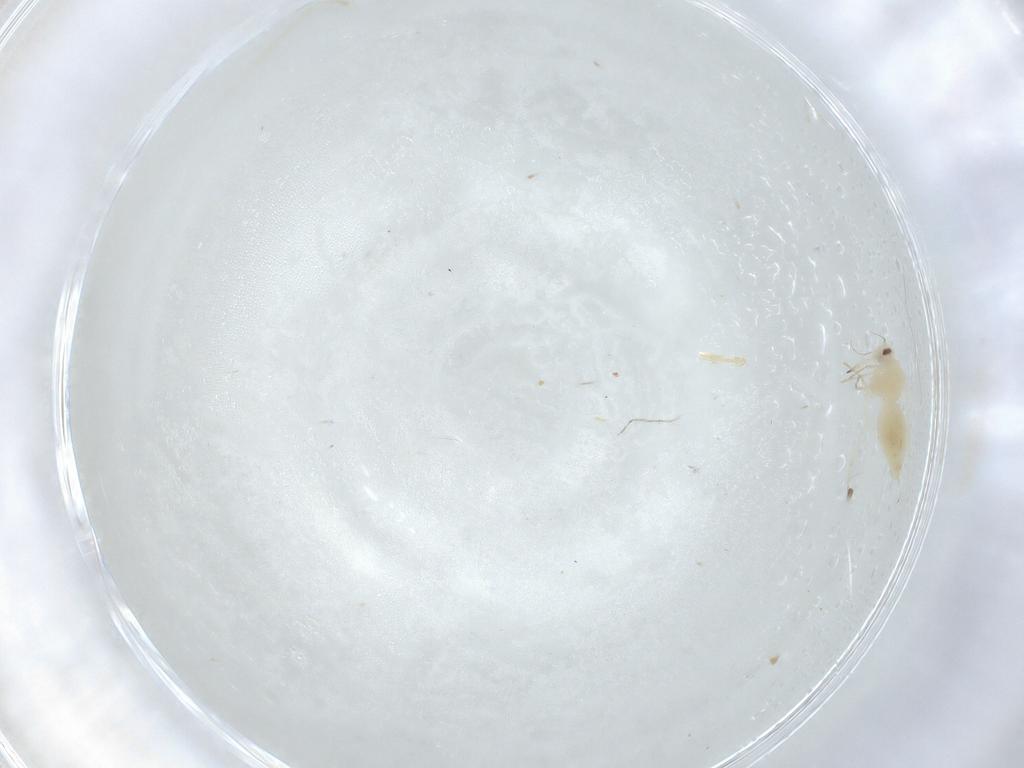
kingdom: Animalia
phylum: Arthropoda
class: Insecta
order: Hemiptera
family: Aleyrodidae
